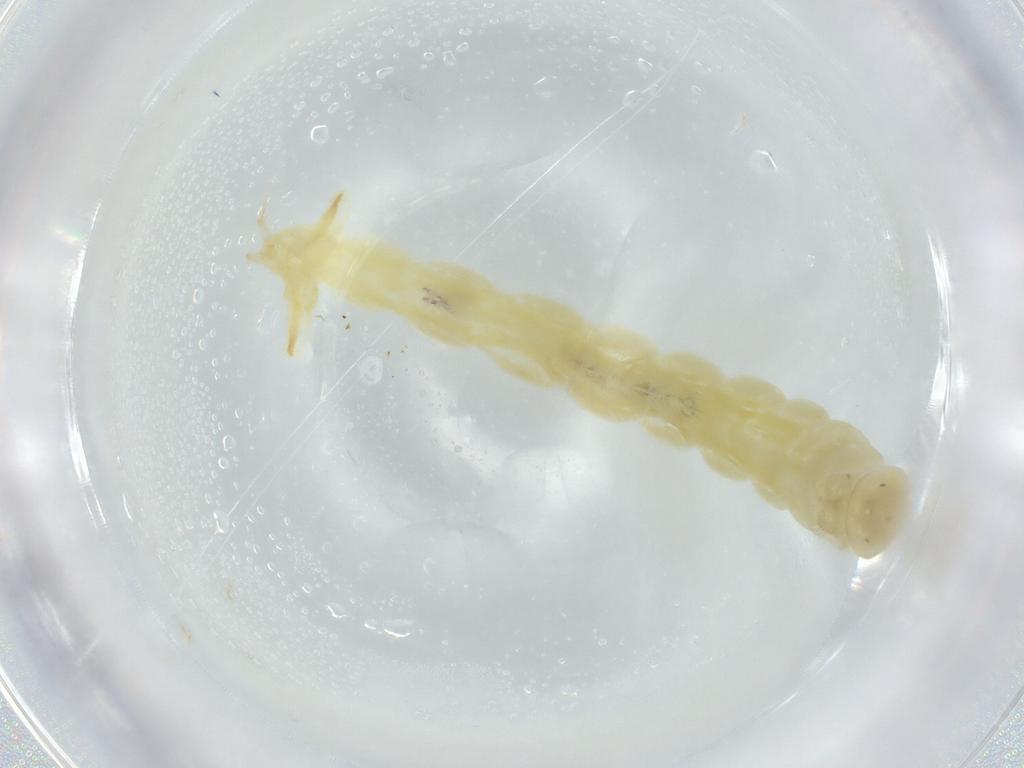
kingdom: Animalia
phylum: Arthropoda
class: Insecta
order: Diptera
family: Chironomidae
